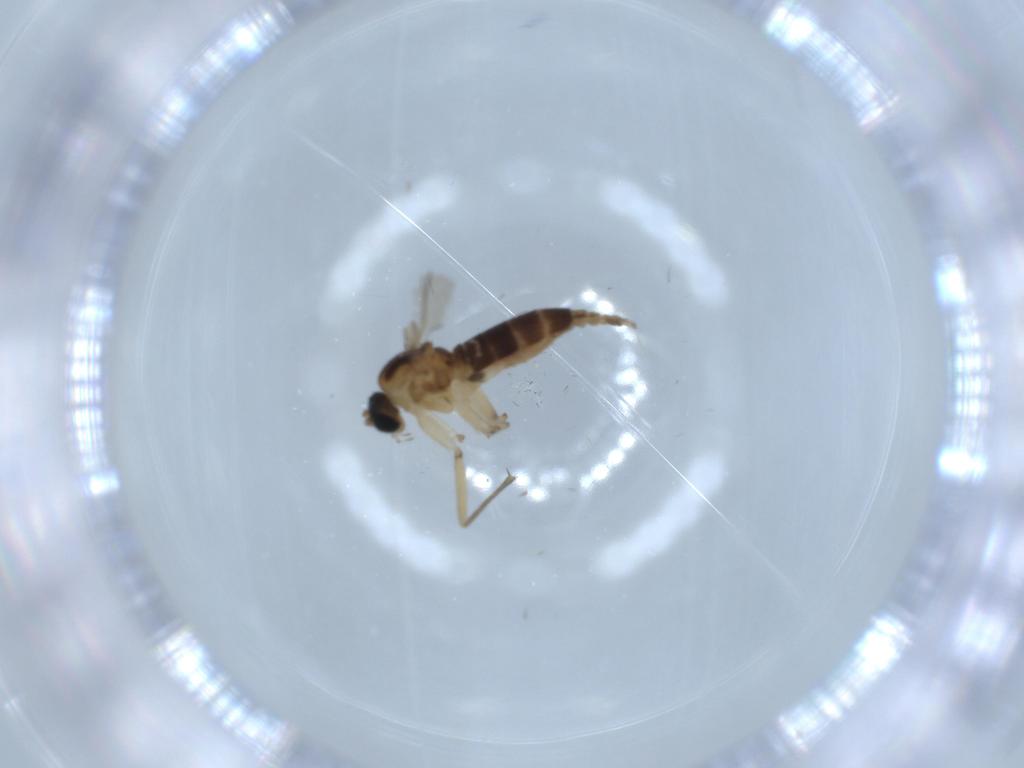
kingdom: Animalia
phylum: Arthropoda
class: Insecta
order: Diptera
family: Sciaridae
